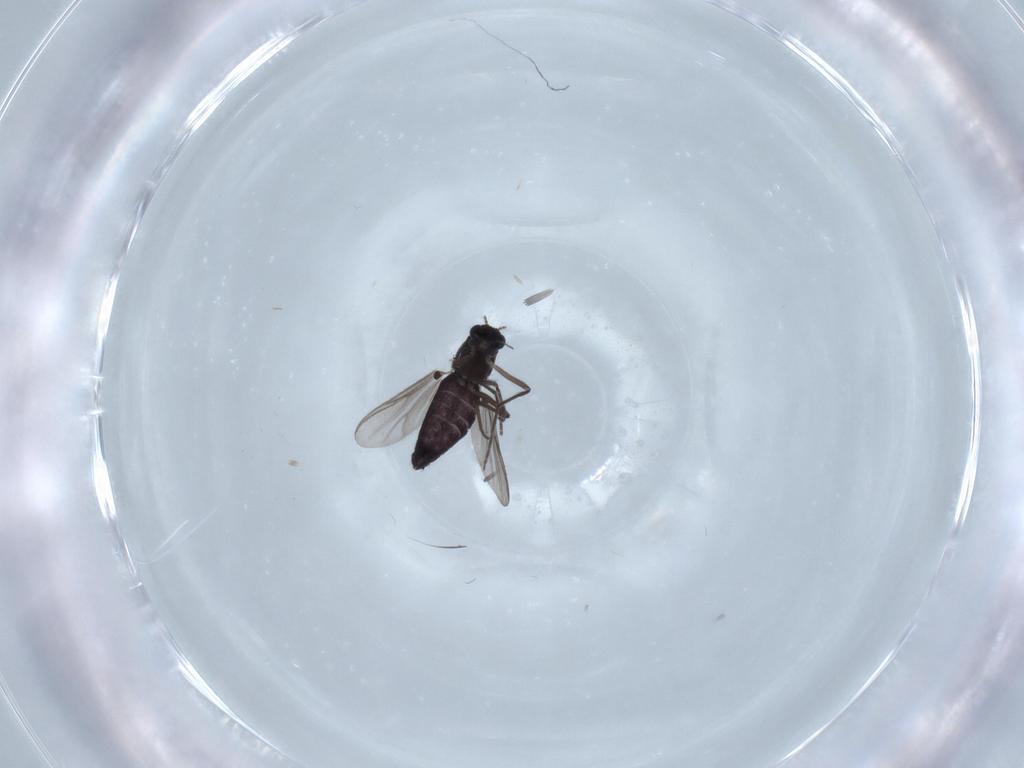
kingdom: Animalia
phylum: Arthropoda
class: Insecta
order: Diptera
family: Chironomidae
